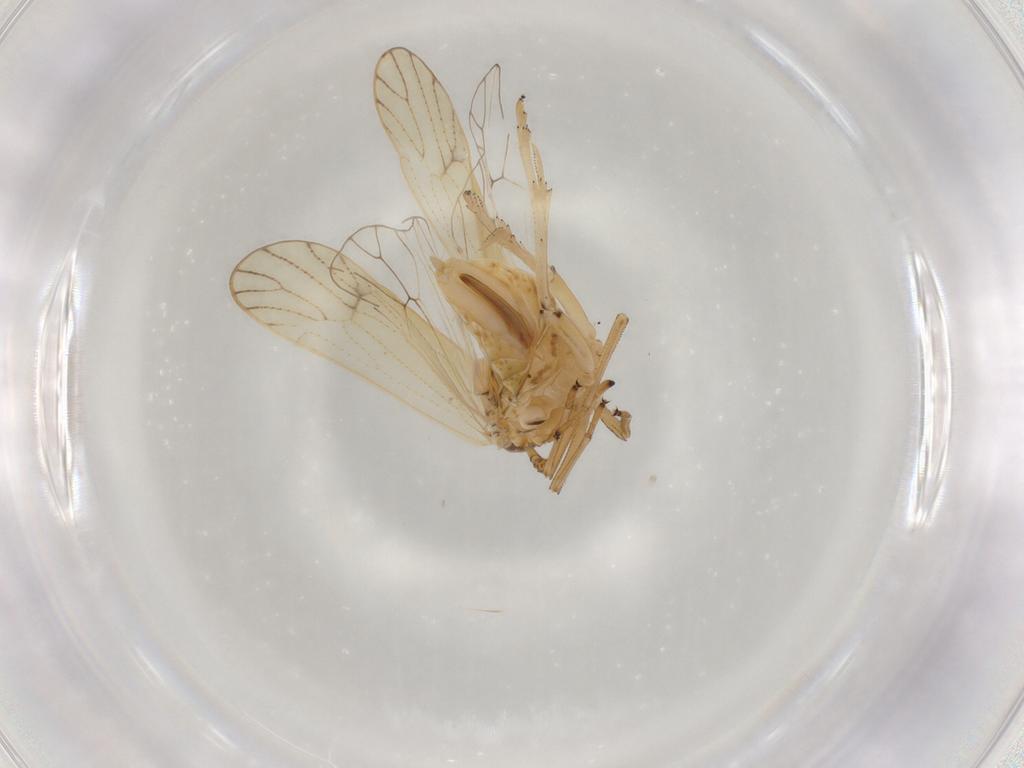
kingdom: Animalia
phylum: Arthropoda
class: Insecta
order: Hemiptera
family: Delphacidae
